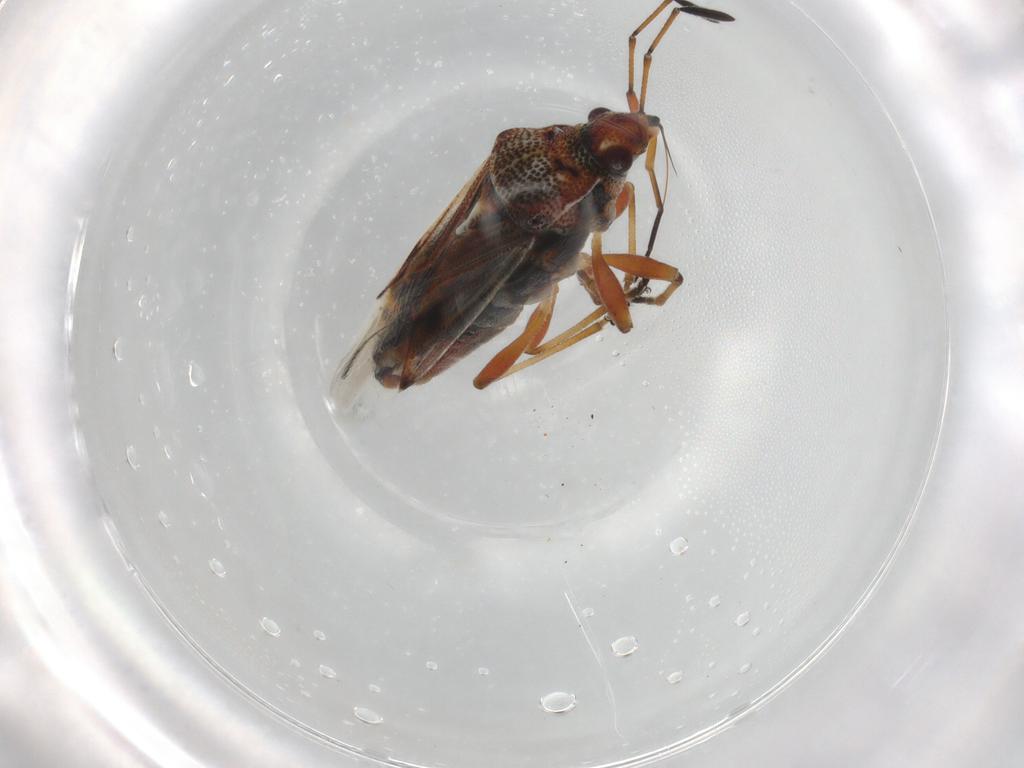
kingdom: Animalia
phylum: Arthropoda
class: Insecta
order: Hemiptera
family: Lygaeidae
